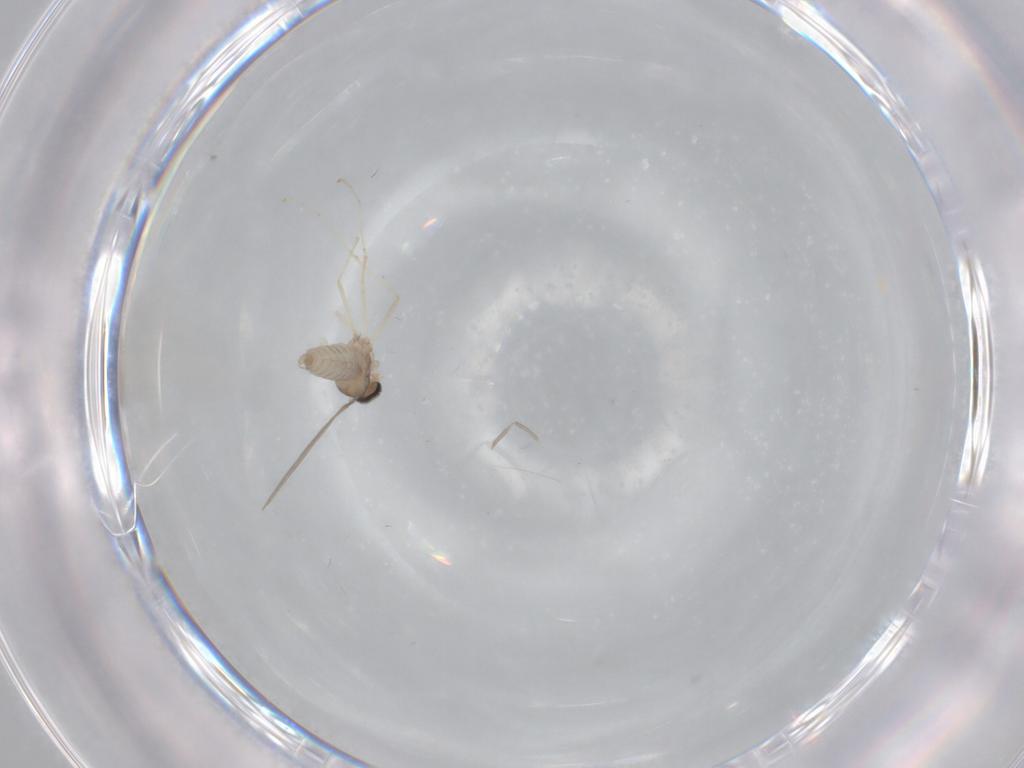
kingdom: Animalia
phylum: Arthropoda
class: Insecta
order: Diptera
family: Cecidomyiidae
